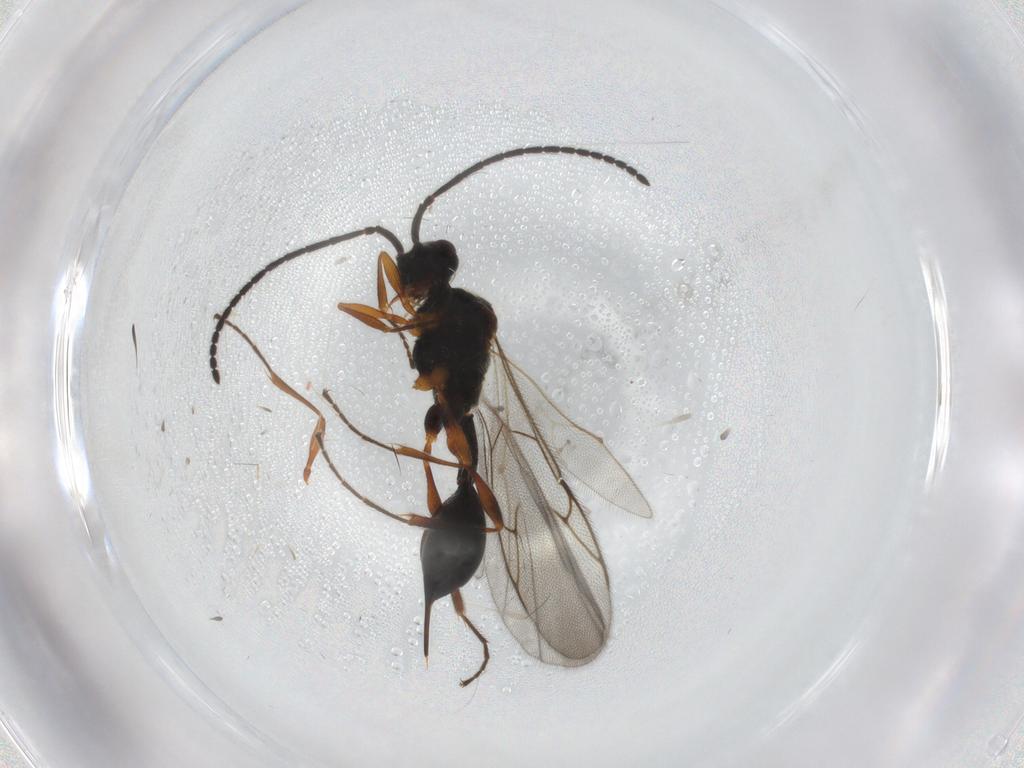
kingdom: Animalia
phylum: Arthropoda
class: Insecta
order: Hymenoptera
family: Diapriidae
